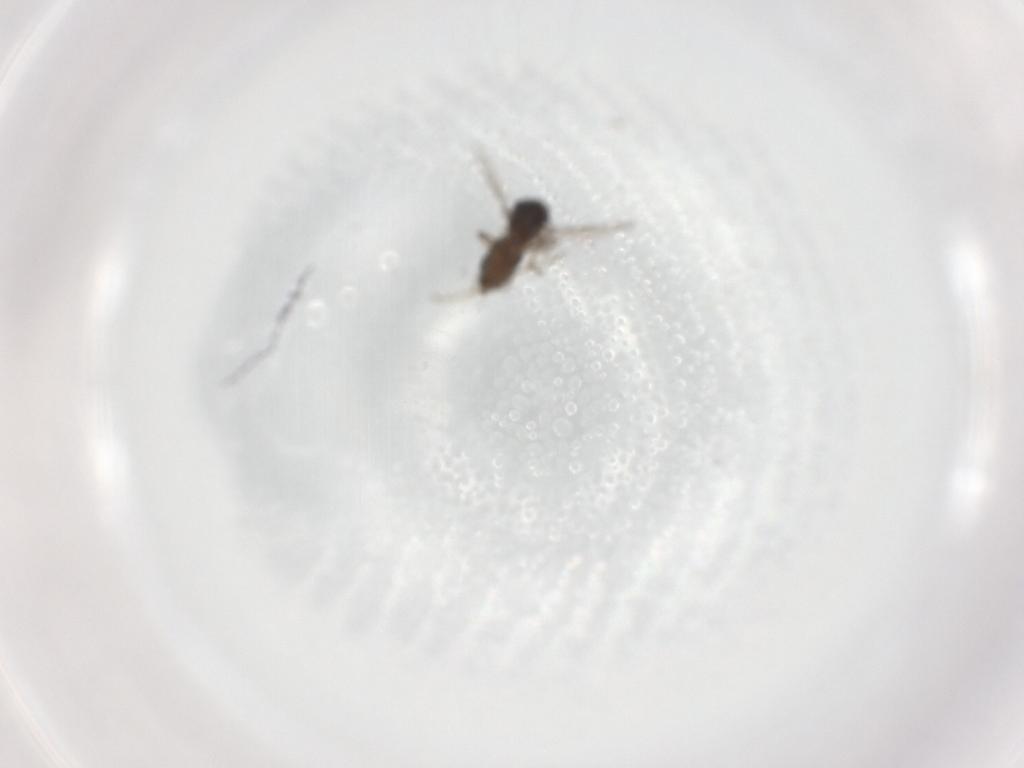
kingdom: Animalia
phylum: Arthropoda
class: Insecta
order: Diptera
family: Ceratopogonidae
